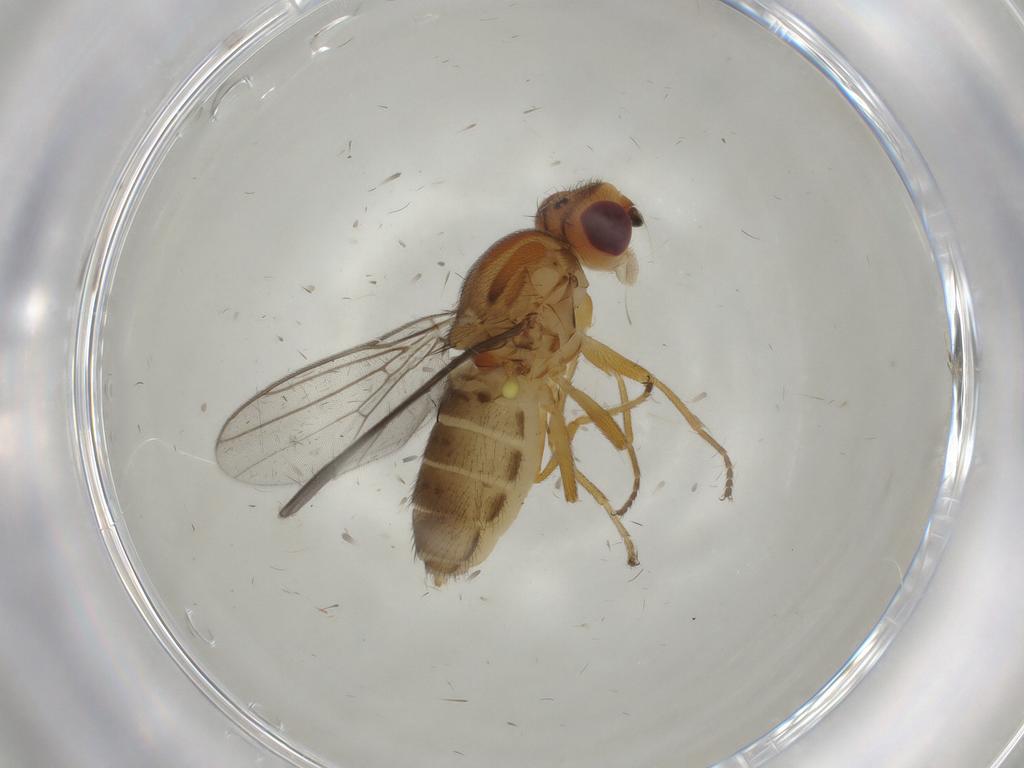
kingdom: Animalia
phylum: Arthropoda
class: Insecta
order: Diptera
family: Chloropidae
